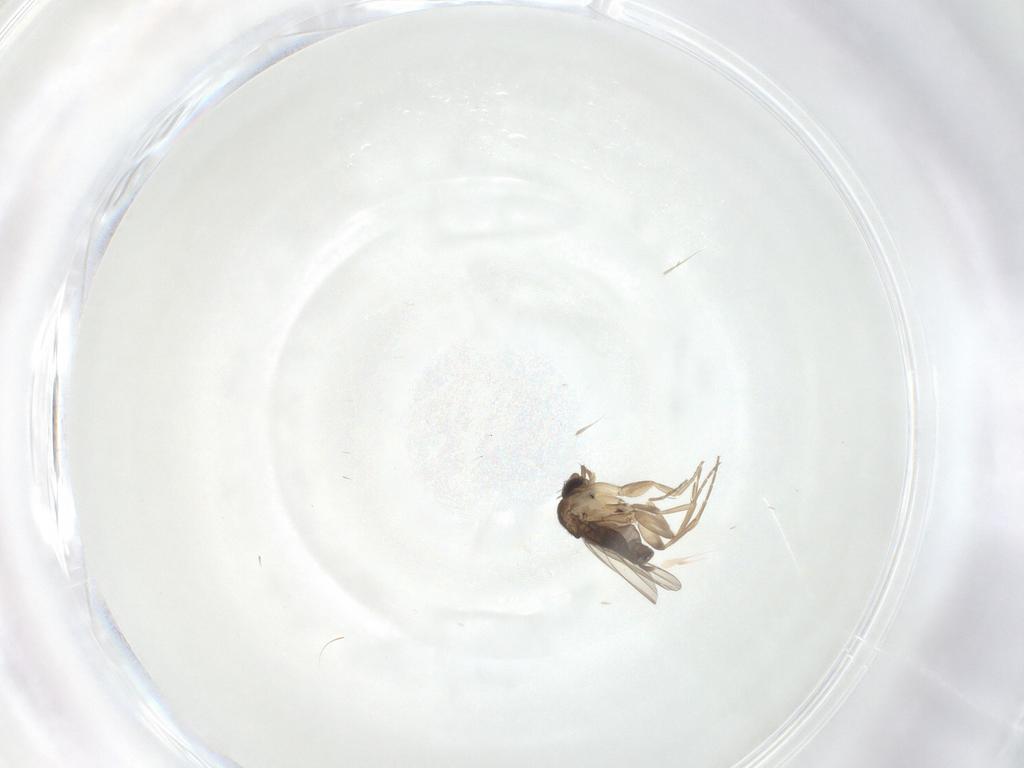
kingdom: Animalia
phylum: Arthropoda
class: Insecta
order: Diptera
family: Phoridae
